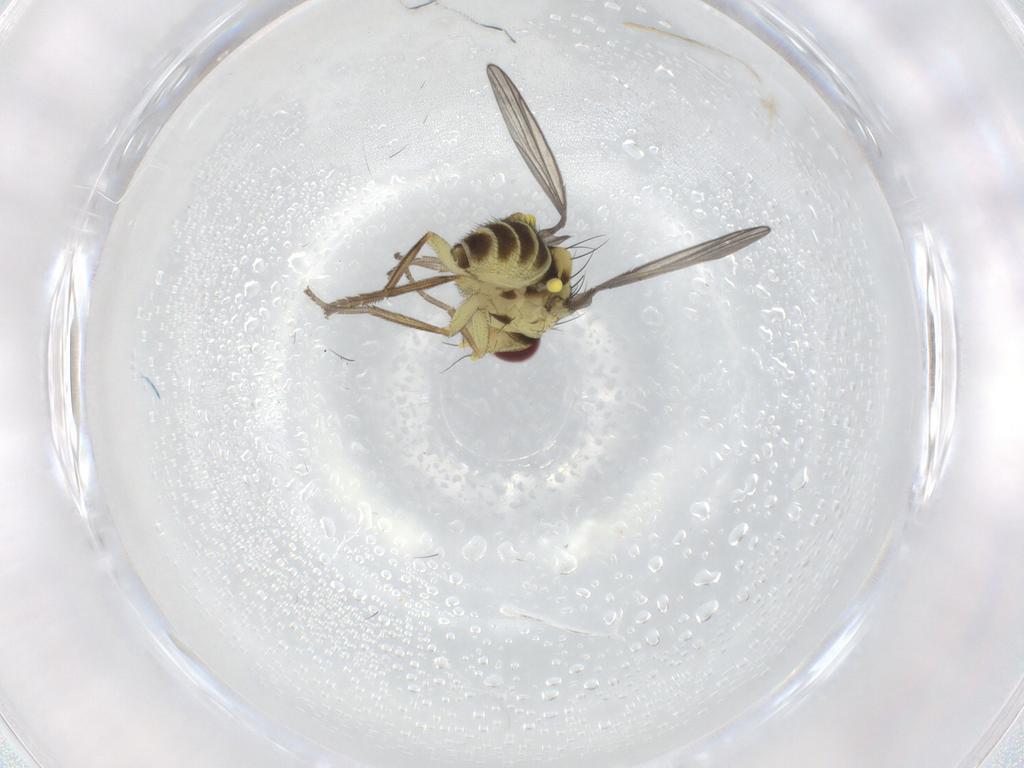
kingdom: Animalia
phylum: Arthropoda
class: Insecta
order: Diptera
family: Agromyzidae
